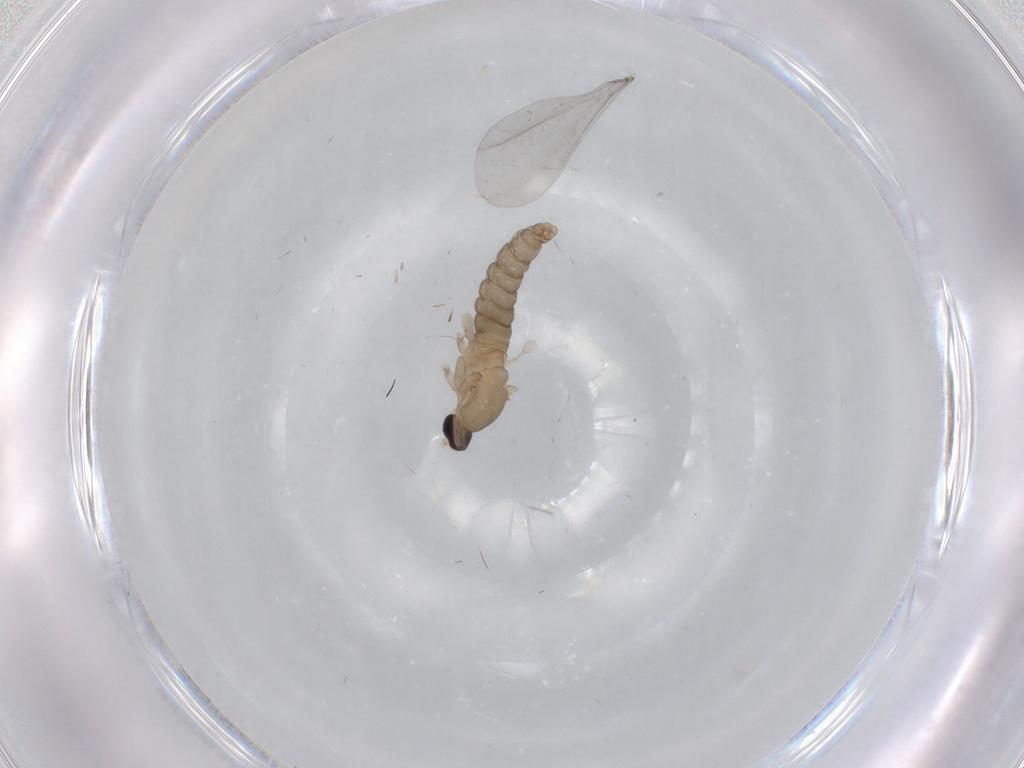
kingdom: Animalia
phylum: Arthropoda
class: Insecta
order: Diptera
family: Cecidomyiidae
